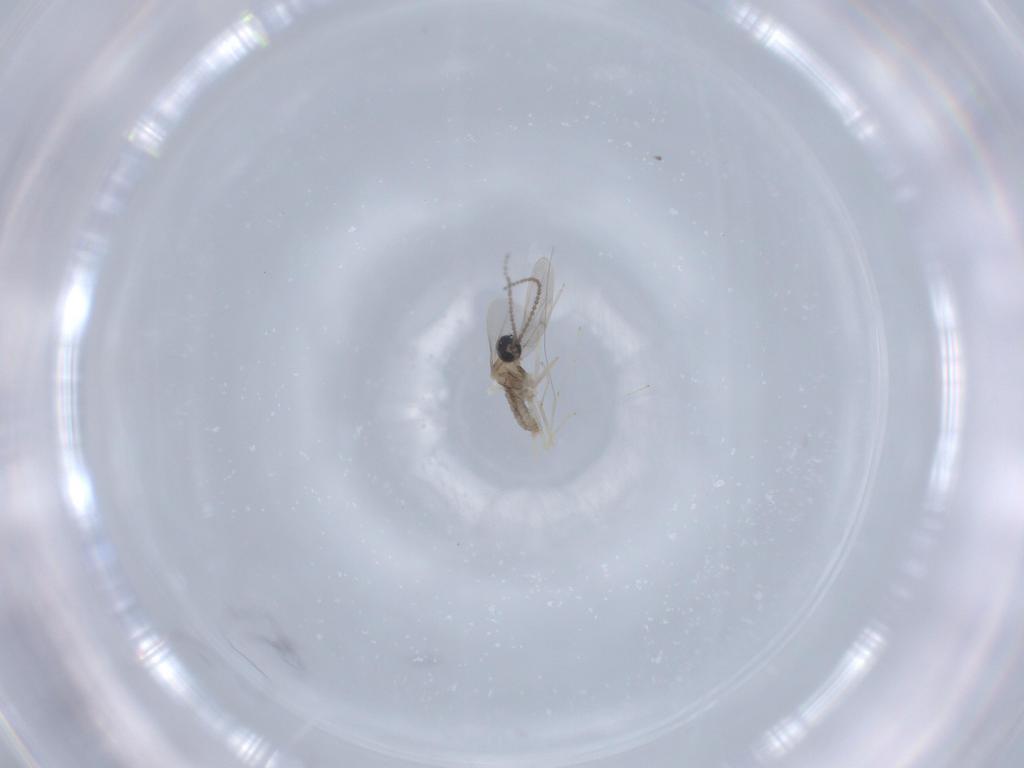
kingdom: Animalia
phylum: Arthropoda
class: Insecta
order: Diptera
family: Cecidomyiidae
